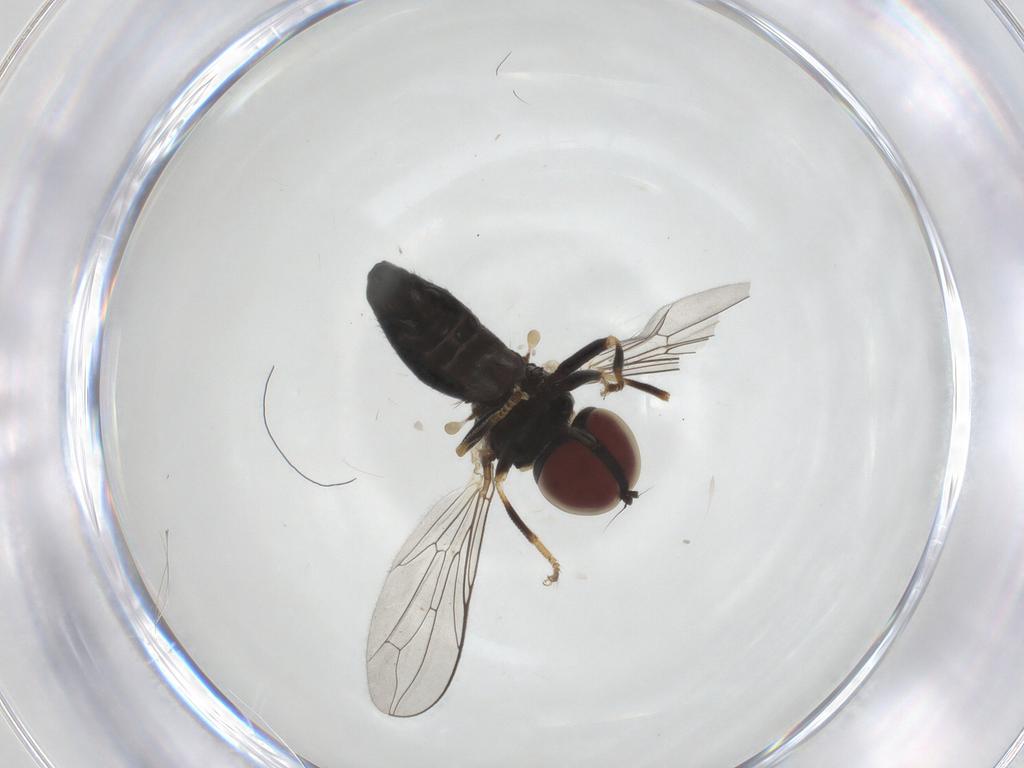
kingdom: Animalia
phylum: Arthropoda
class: Insecta
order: Diptera
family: Pipunculidae
